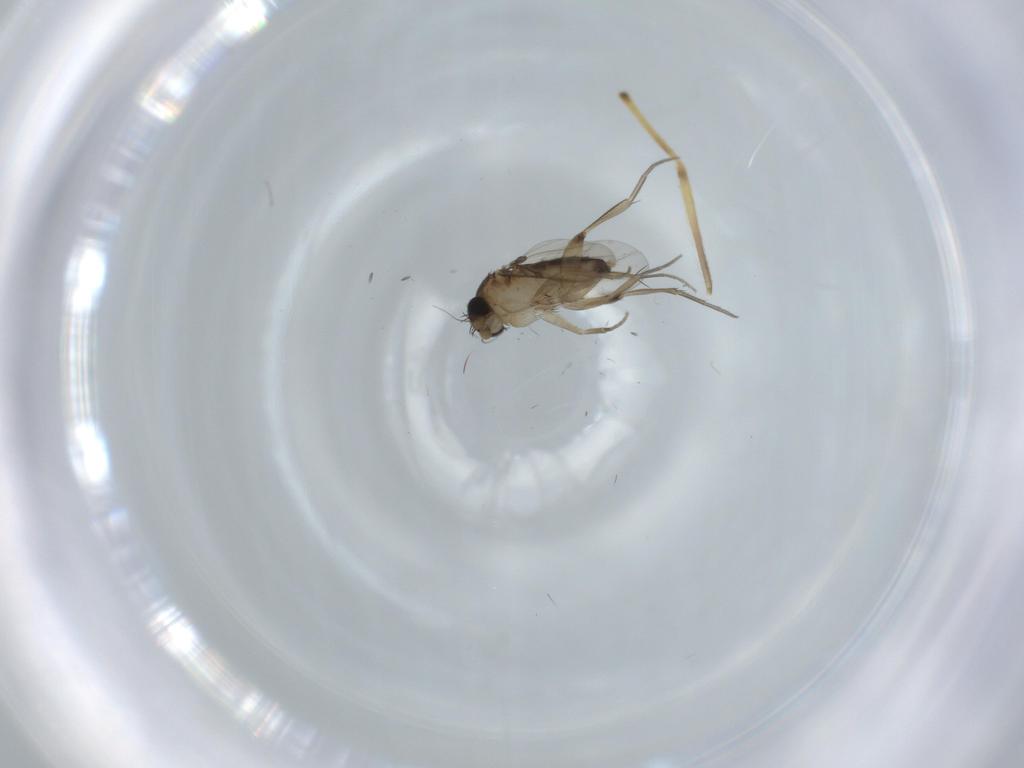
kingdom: Animalia
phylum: Arthropoda
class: Insecta
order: Diptera
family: Chironomidae
